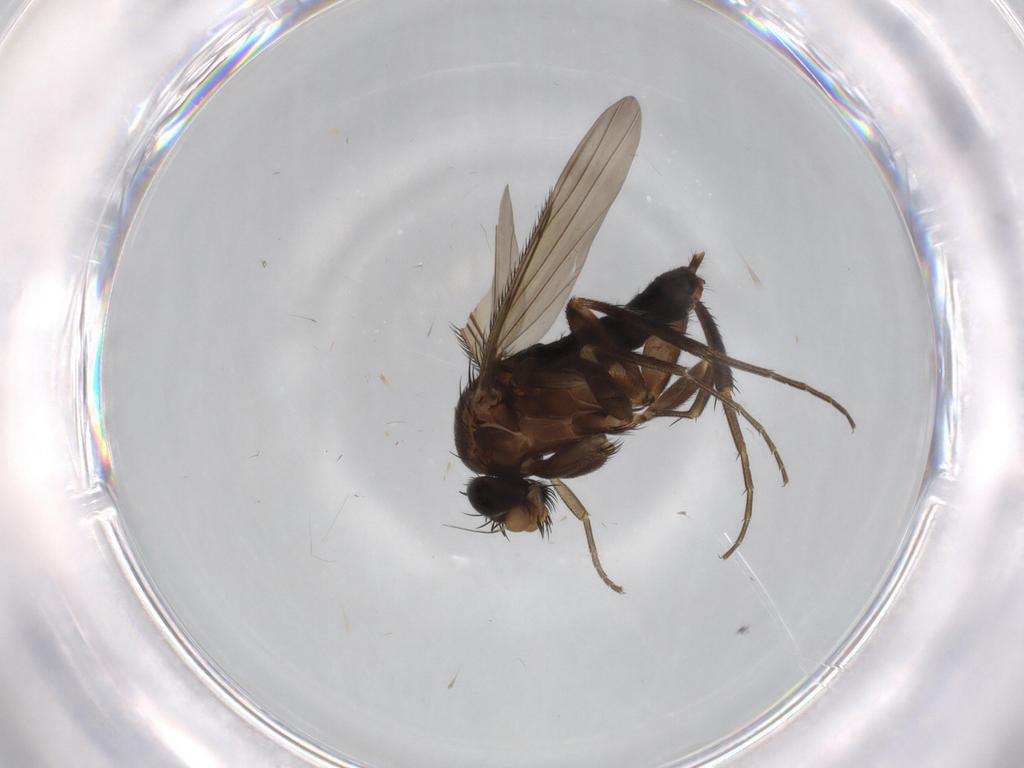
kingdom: Animalia
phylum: Arthropoda
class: Insecta
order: Diptera
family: Phoridae
